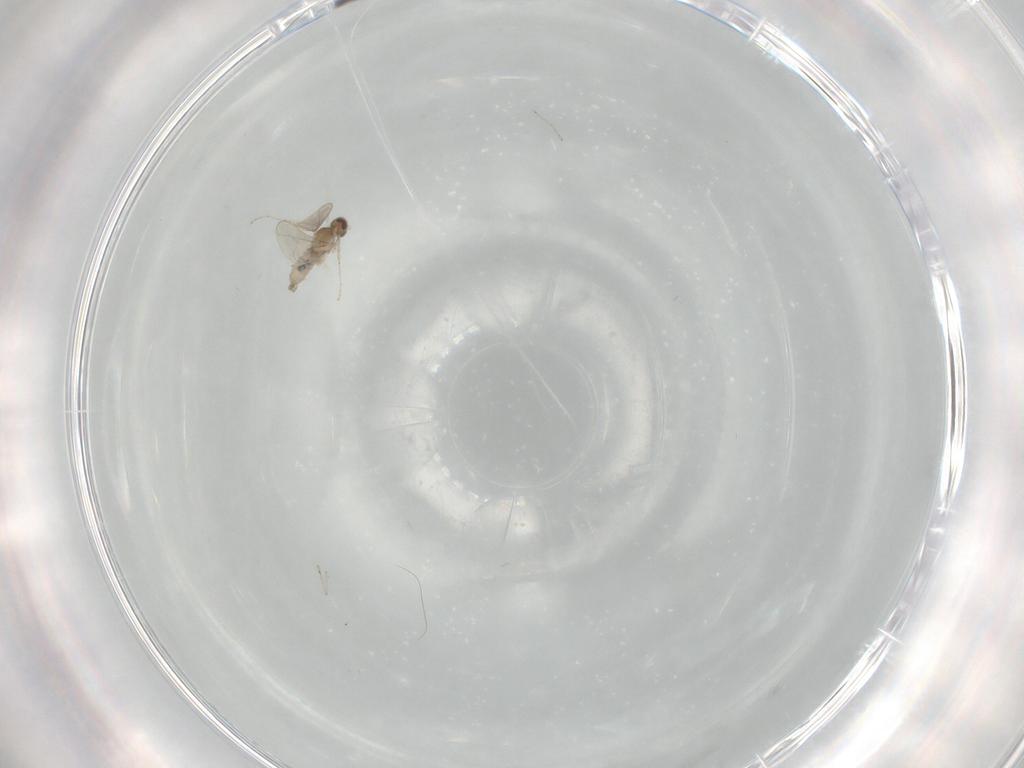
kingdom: Animalia
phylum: Arthropoda
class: Insecta
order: Diptera
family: Cecidomyiidae
